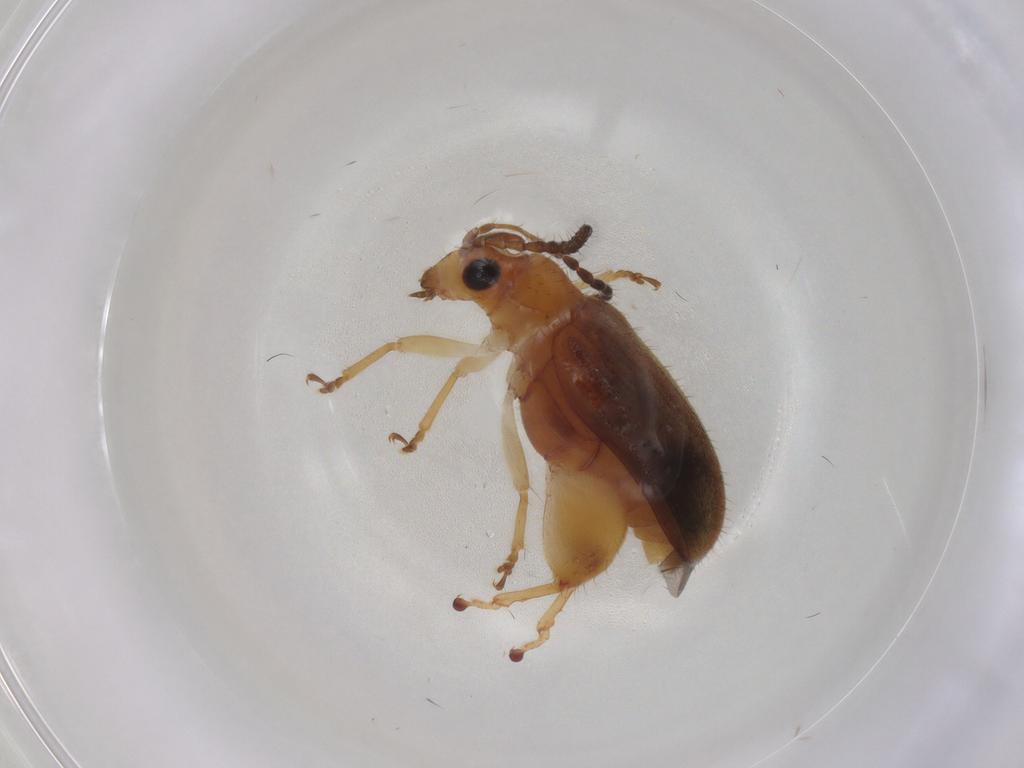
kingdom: Animalia
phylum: Arthropoda
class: Insecta
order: Coleoptera
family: Chrysomelidae
